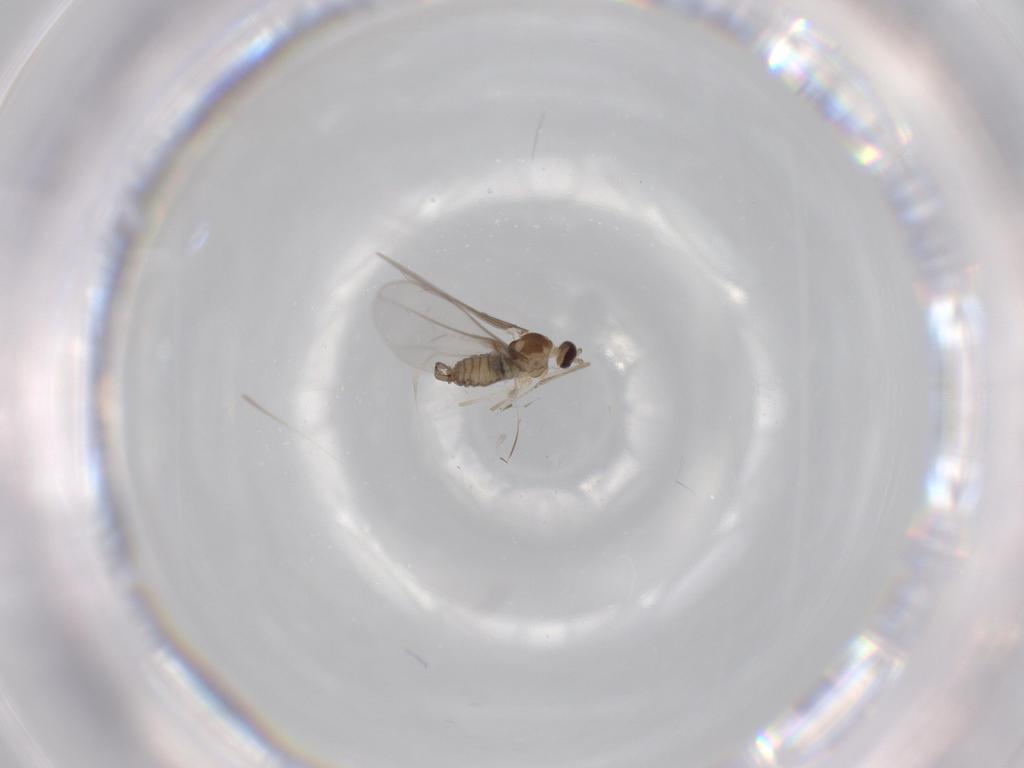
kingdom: Animalia
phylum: Arthropoda
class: Insecta
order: Diptera
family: Cecidomyiidae
